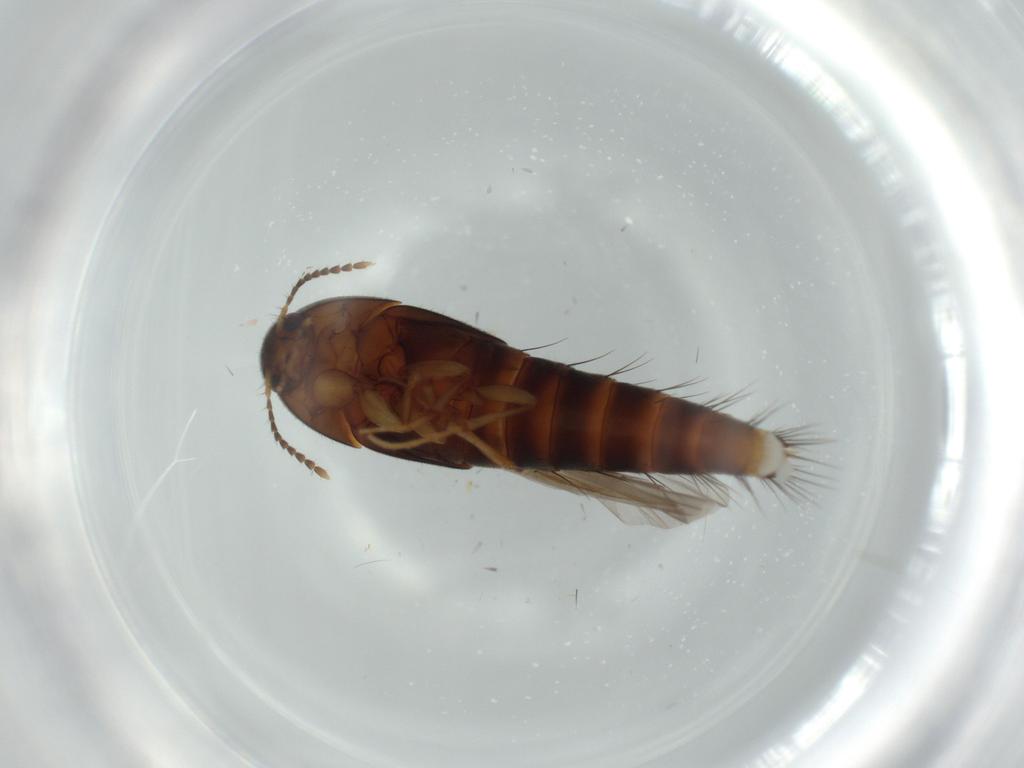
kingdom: Animalia
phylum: Arthropoda
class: Insecta
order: Coleoptera
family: Staphylinidae
